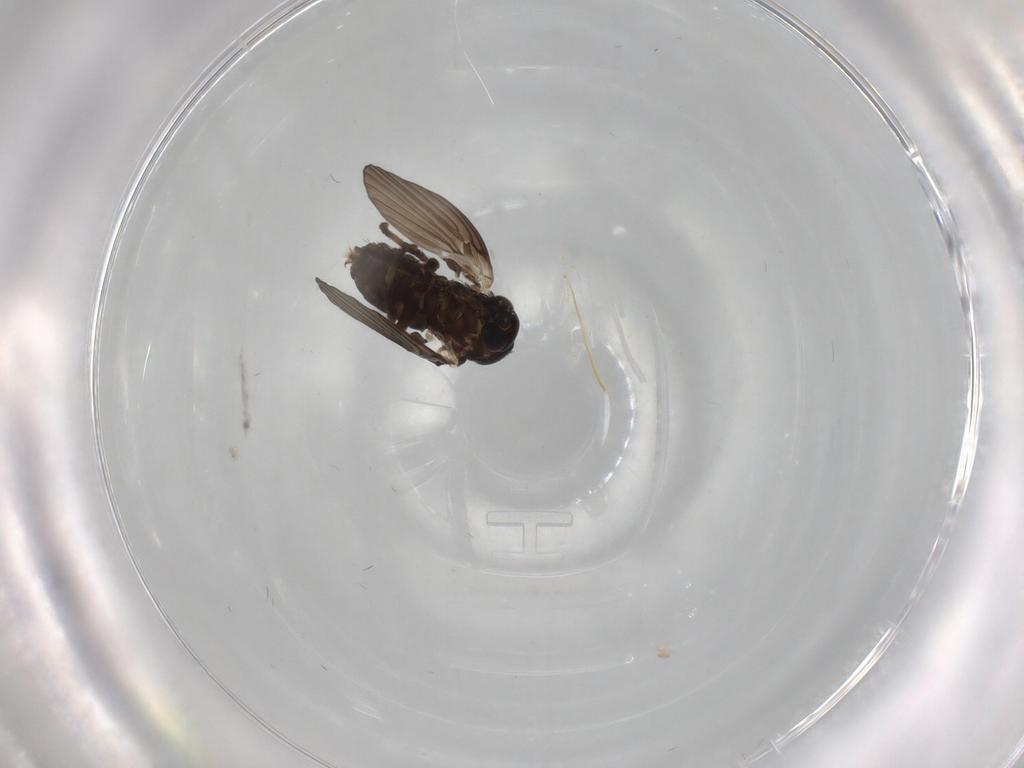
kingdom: Animalia
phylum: Arthropoda
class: Insecta
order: Diptera
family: Psychodidae
